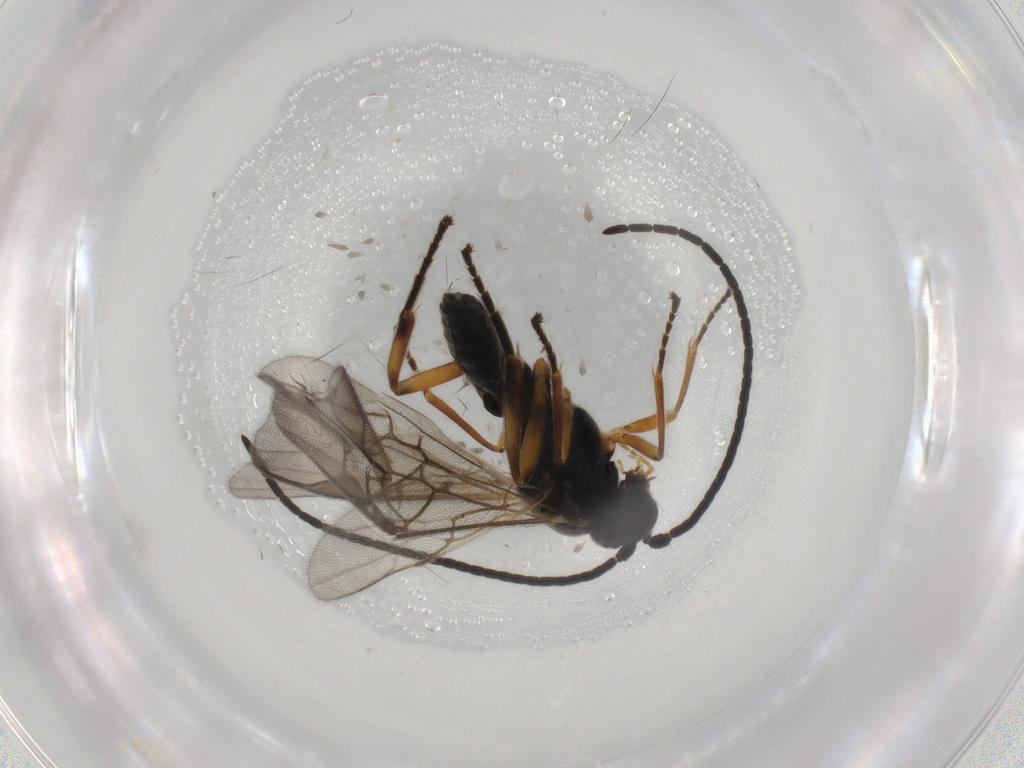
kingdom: Animalia
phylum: Arthropoda
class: Insecta
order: Hymenoptera
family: Braconidae
